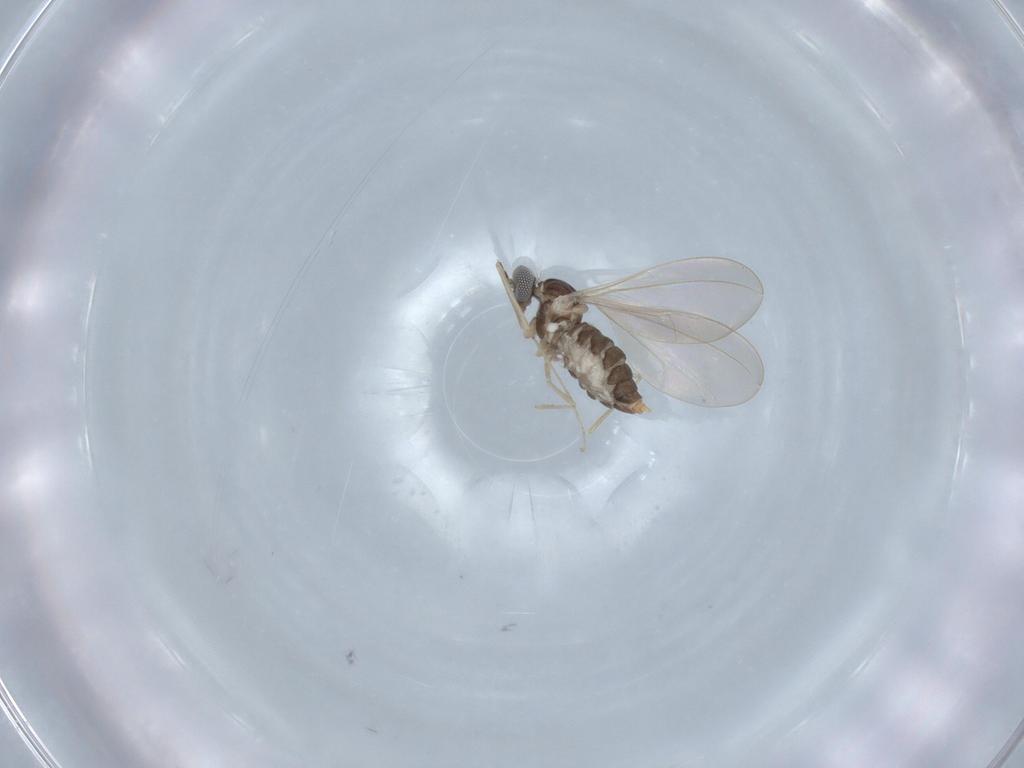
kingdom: Animalia
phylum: Arthropoda
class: Insecta
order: Diptera
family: Cecidomyiidae
